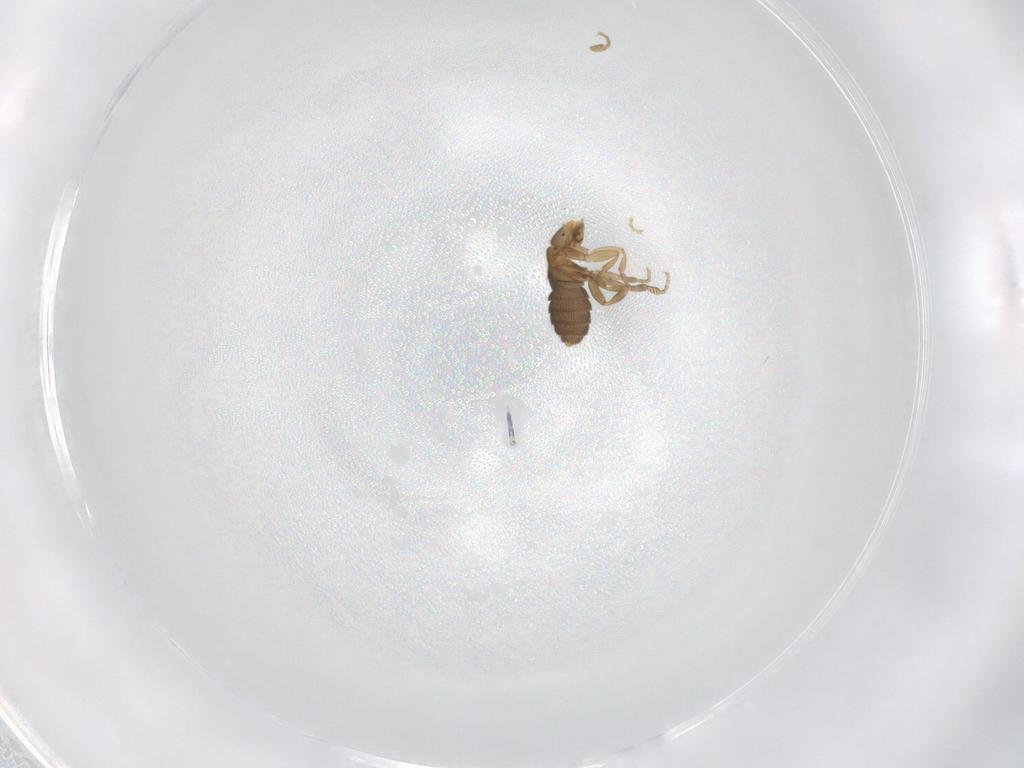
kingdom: Animalia
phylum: Arthropoda
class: Insecta
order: Diptera
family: Phoridae
